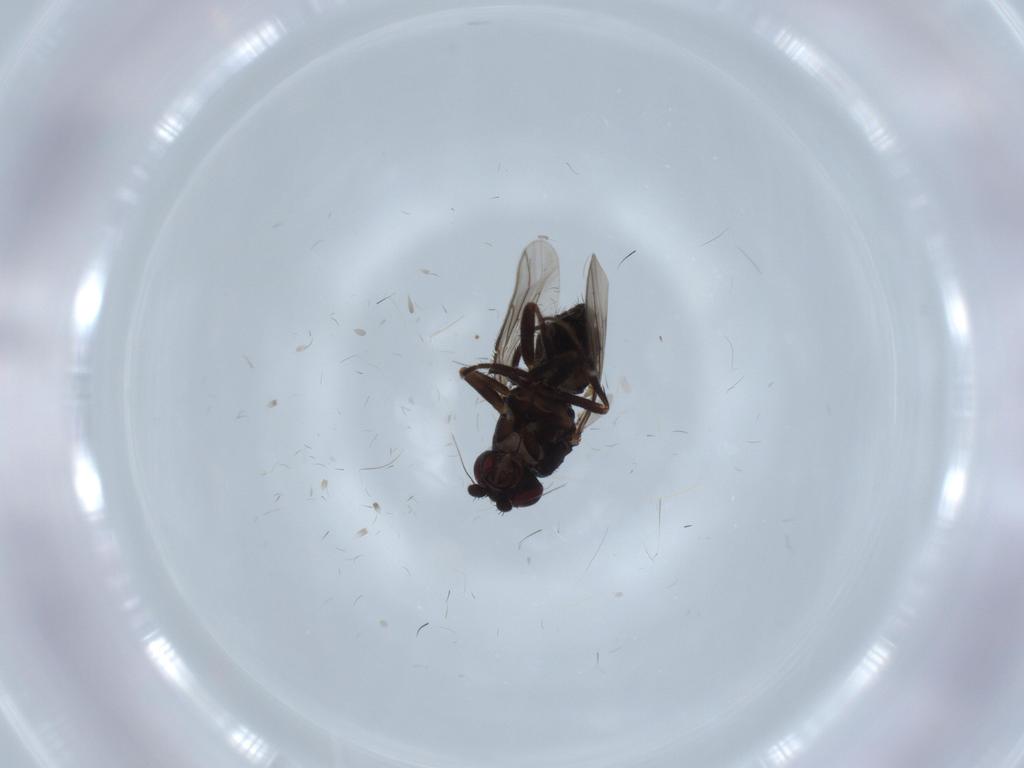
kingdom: Animalia
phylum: Arthropoda
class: Insecta
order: Diptera
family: Sphaeroceridae
